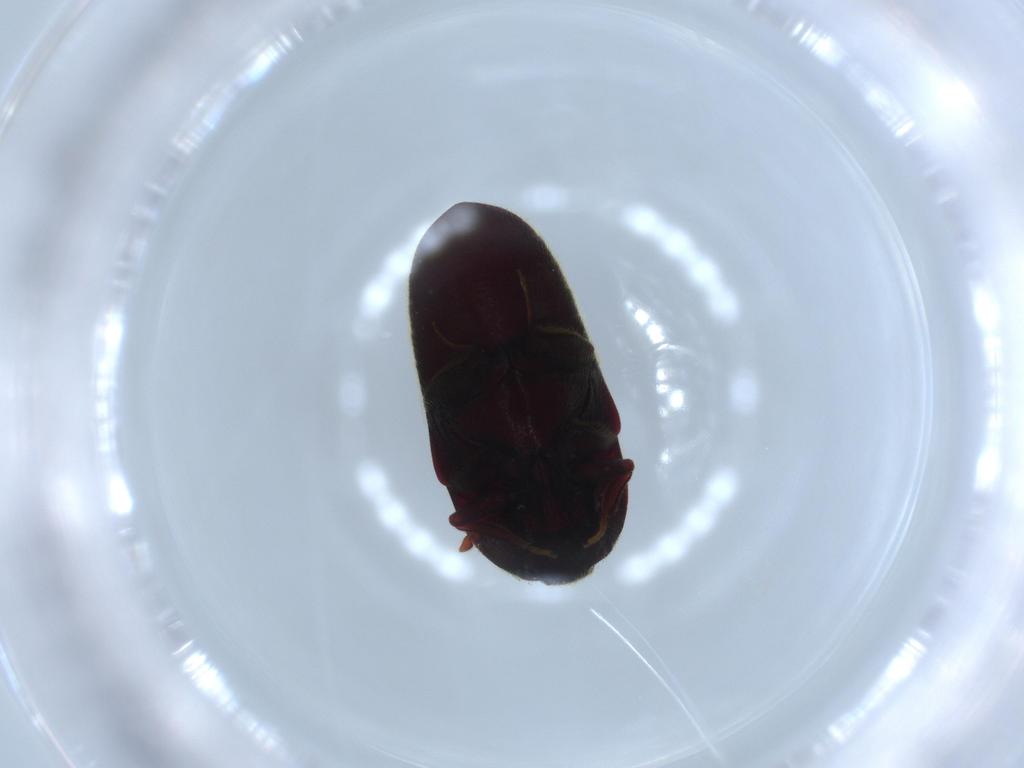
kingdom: Animalia
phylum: Arthropoda
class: Insecta
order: Coleoptera
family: Throscidae
